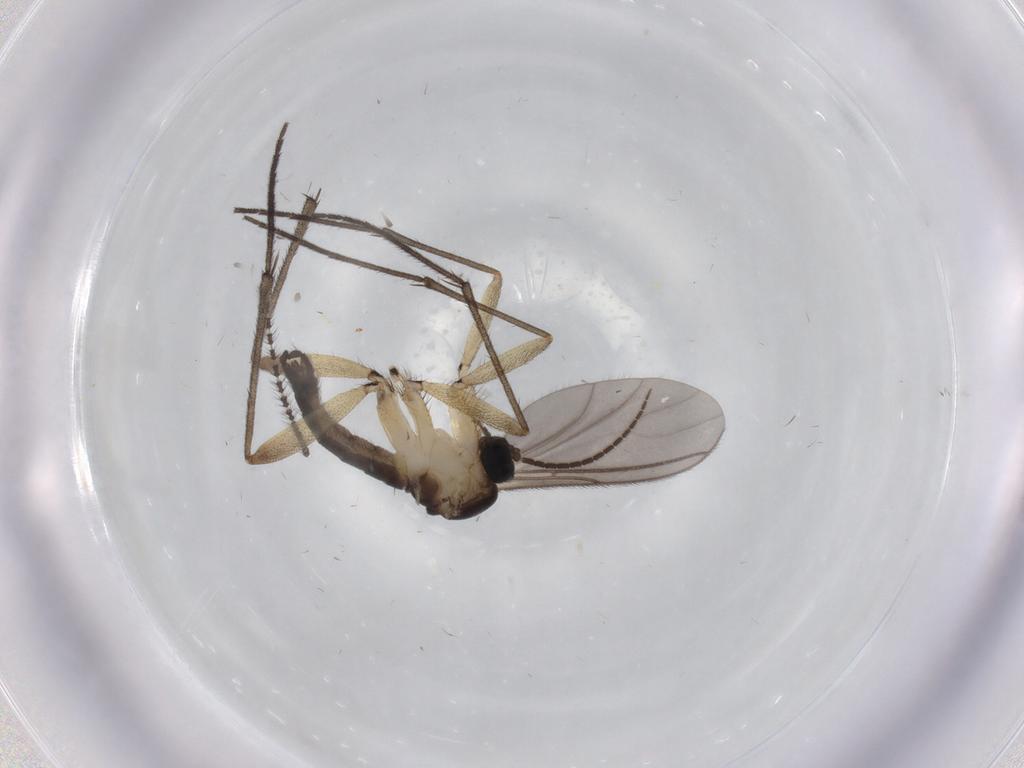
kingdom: Animalia
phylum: Arthropoda
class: Insecta
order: Diptera
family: Phoridae
